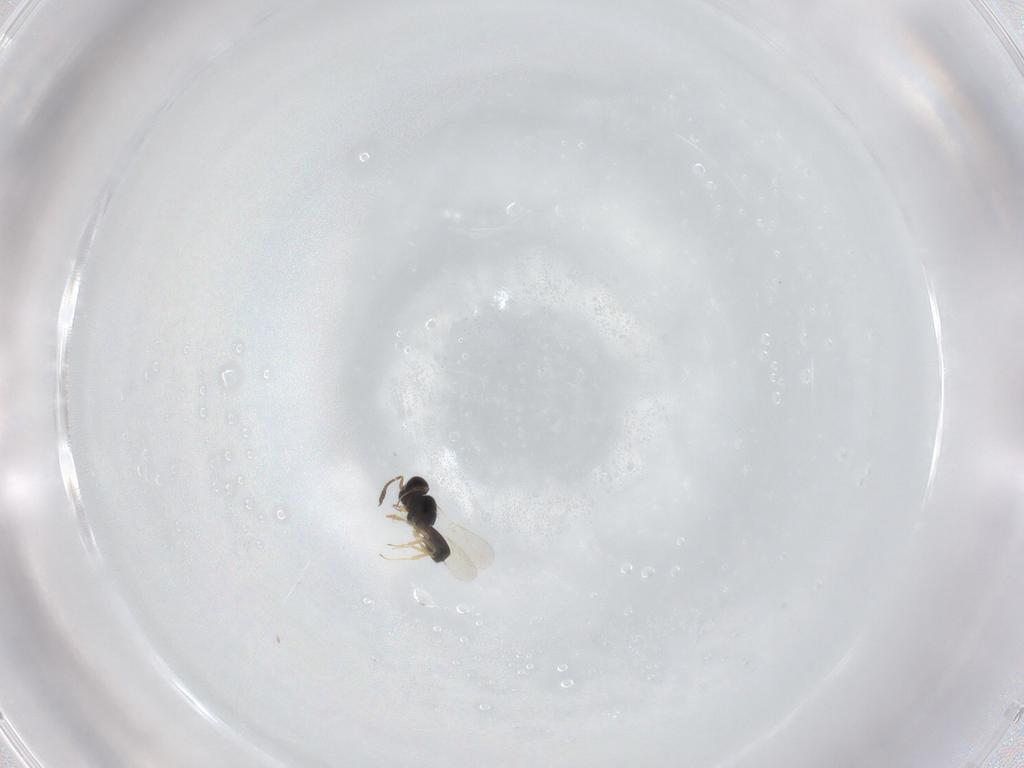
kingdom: Animalia
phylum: Arthropoda
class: Insecta
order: Hymenoptera
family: Scelionidae
